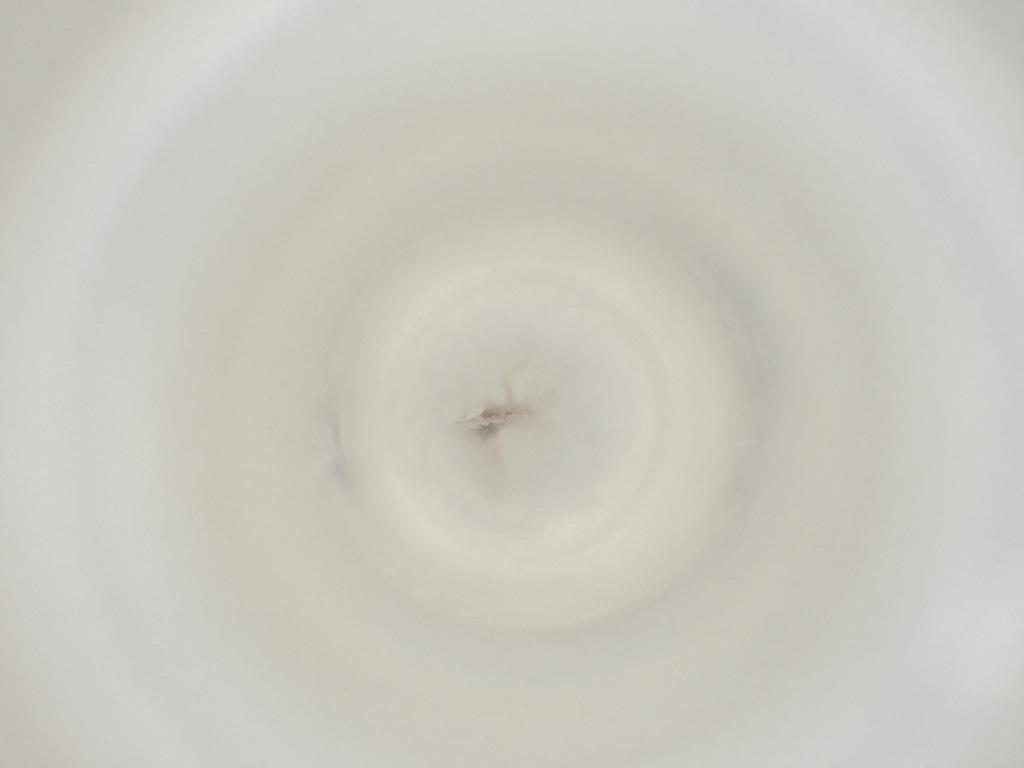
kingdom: Animalia
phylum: Arthropoda
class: Insecta
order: Diptera
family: Cecidomyiidae
